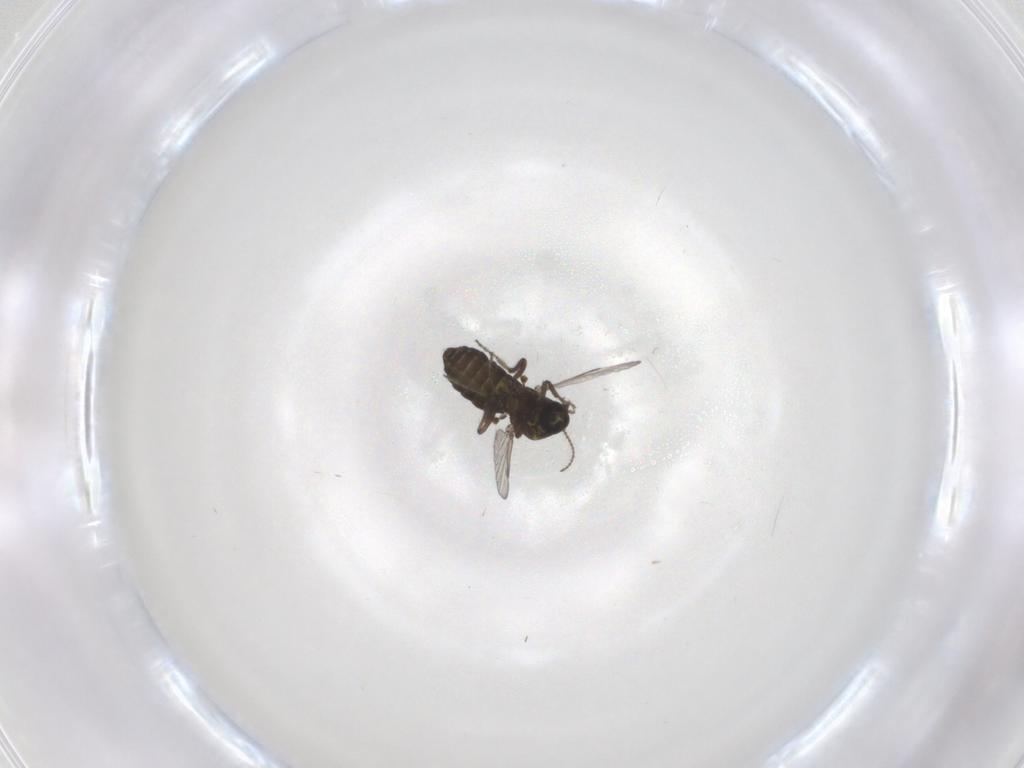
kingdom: Animalia
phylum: Arthropoda
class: Insecta
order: Diptera
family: Ceratopogonidae
